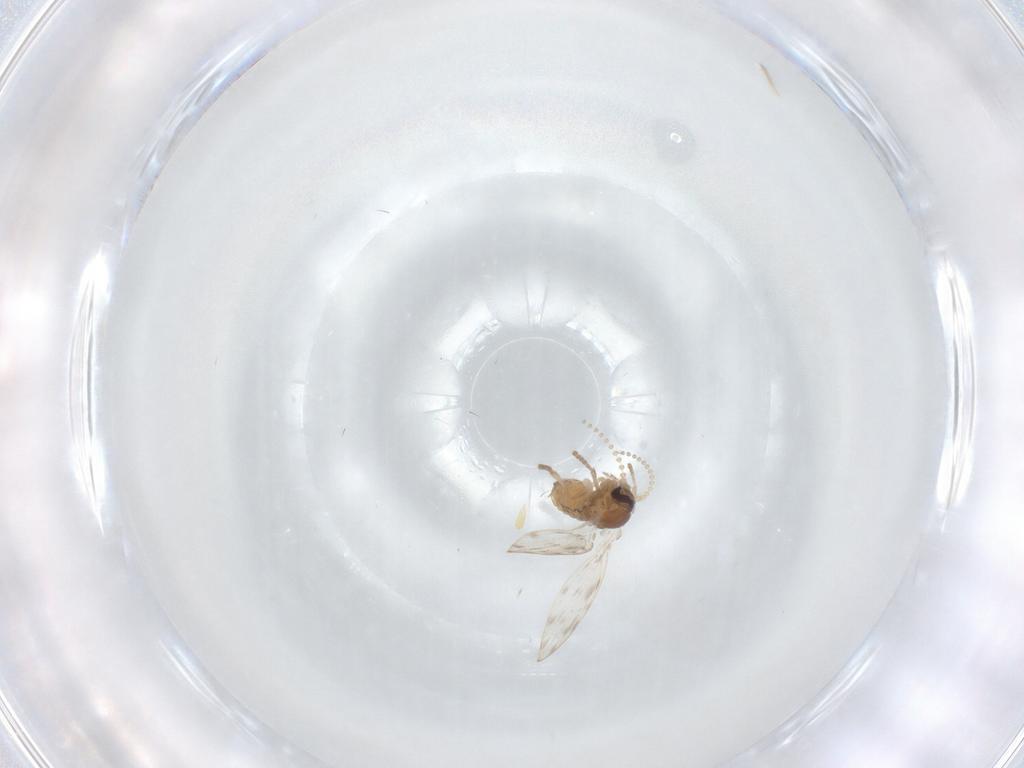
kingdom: Animalia
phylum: Arthropoda
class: Insecta
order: Diptera
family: Psychodidae
